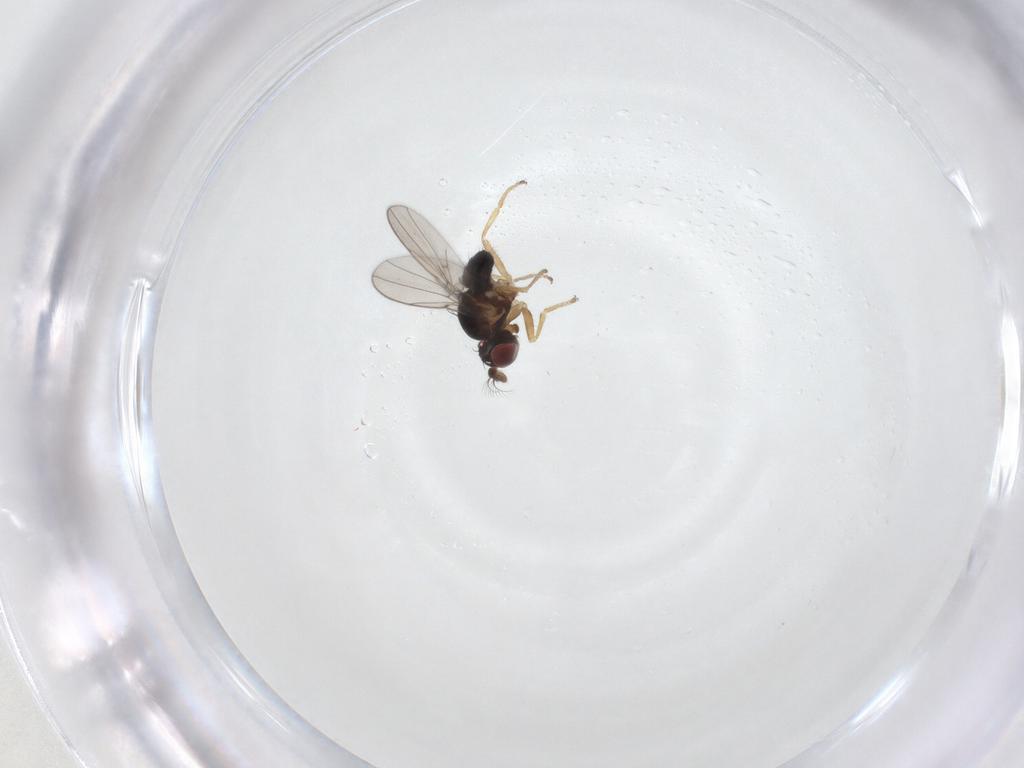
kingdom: Animalia
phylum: Arthropoda
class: Insecta
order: Diptera
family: Ephydridae
